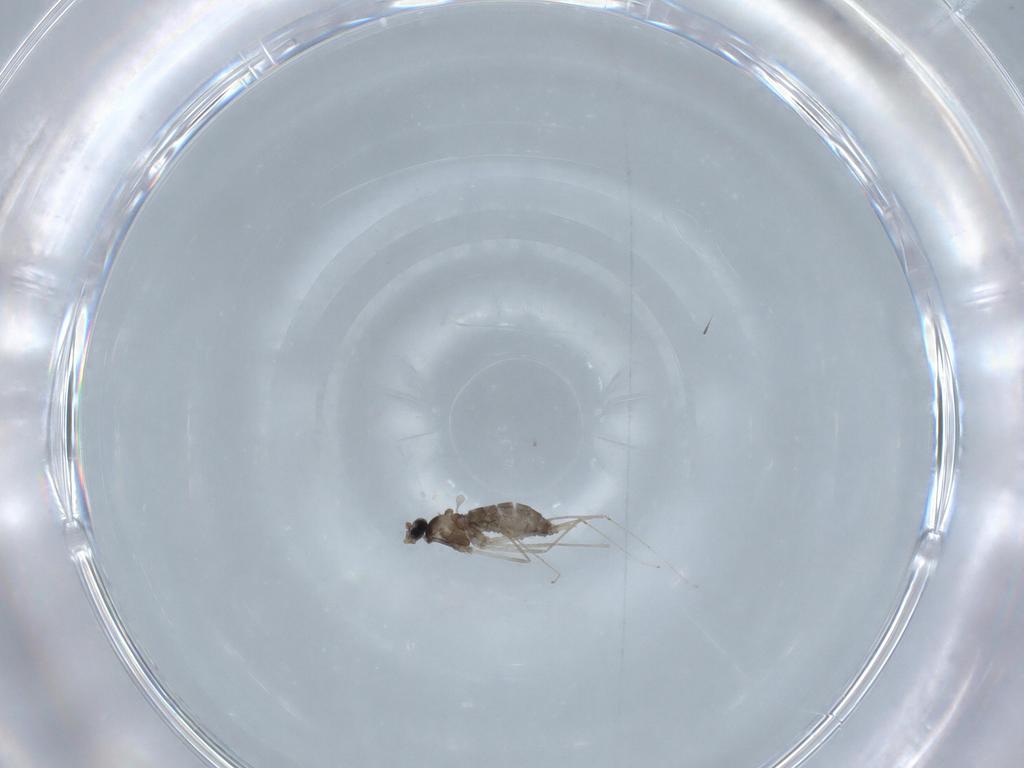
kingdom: Animalia
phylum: Arthropoda
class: Insecta
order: Diptera
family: Cecidomyiidae
